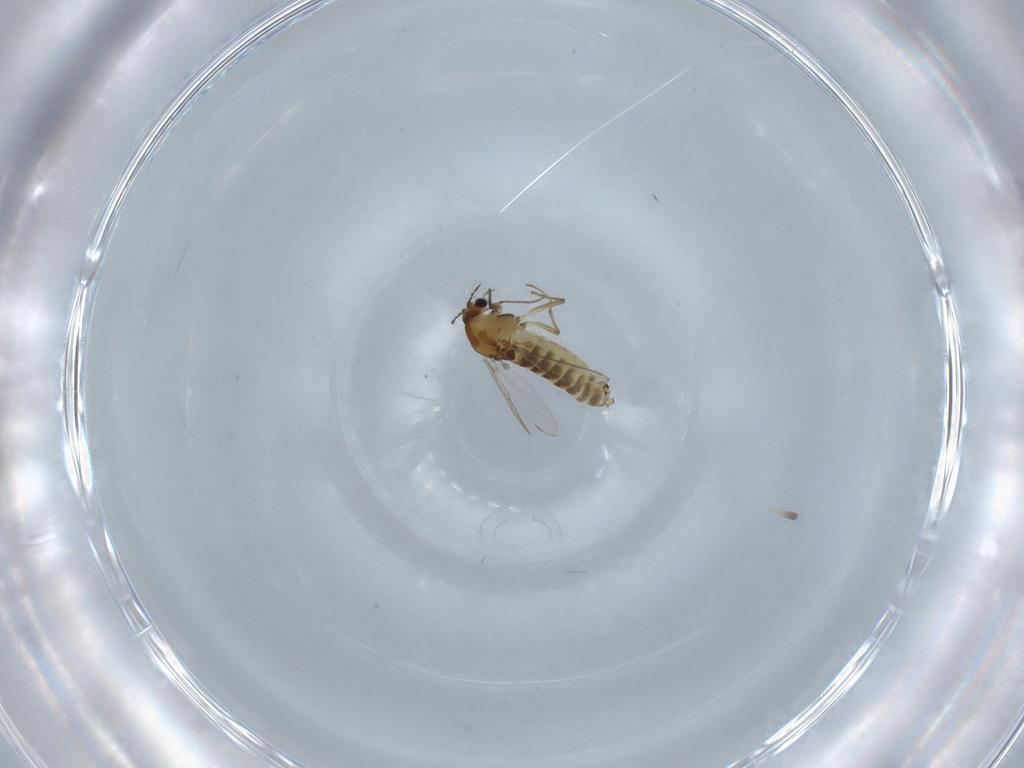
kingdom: Animalia
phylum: Arthropoda
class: Insecta
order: Diptera
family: Chironomidae
